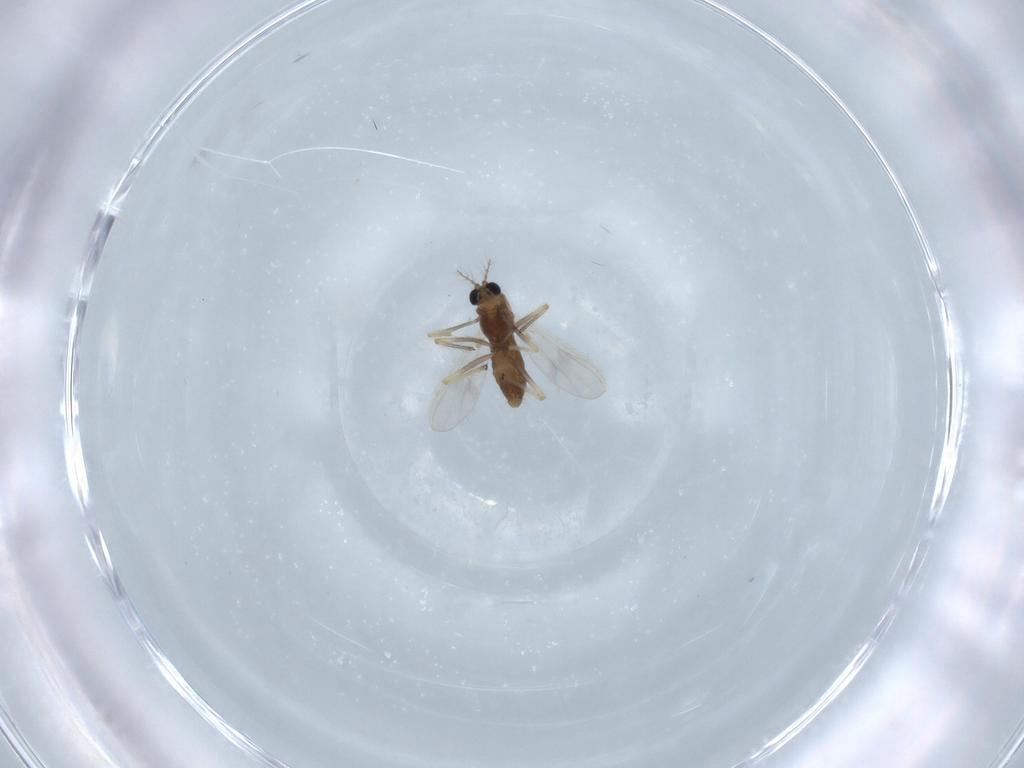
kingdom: Animalia
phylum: Arthropoda
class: Insecta
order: Diptera
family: Chironomidae
